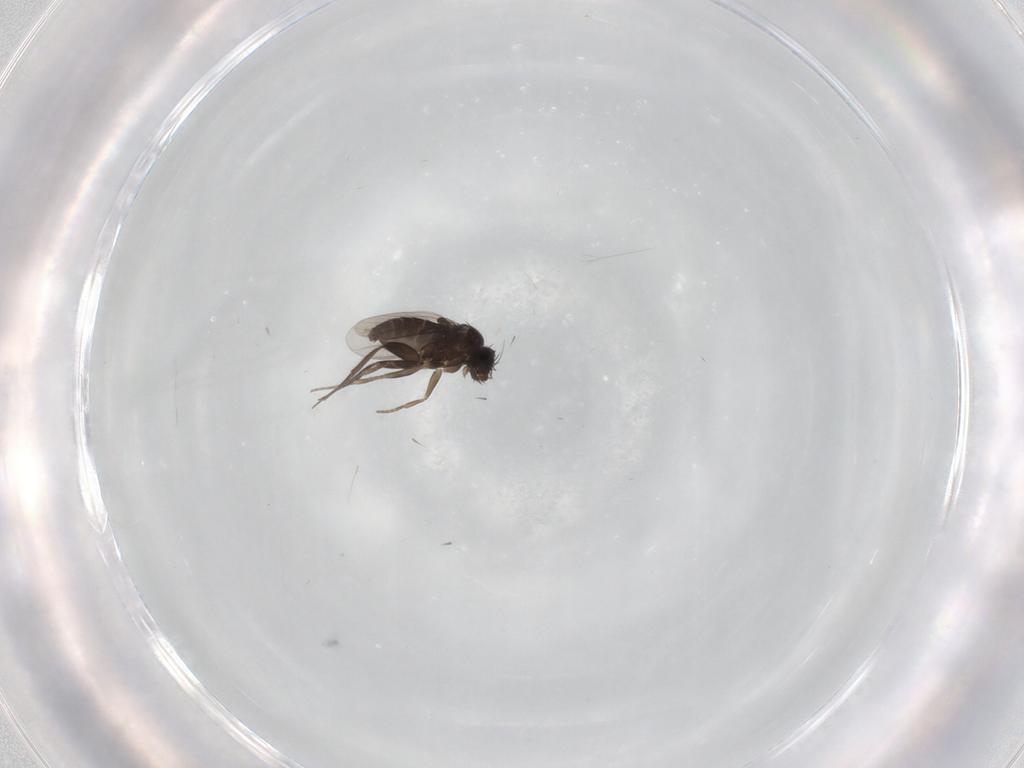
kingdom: Animalia
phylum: Arthropoda
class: Insecta
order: Diptera
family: Phoridae
